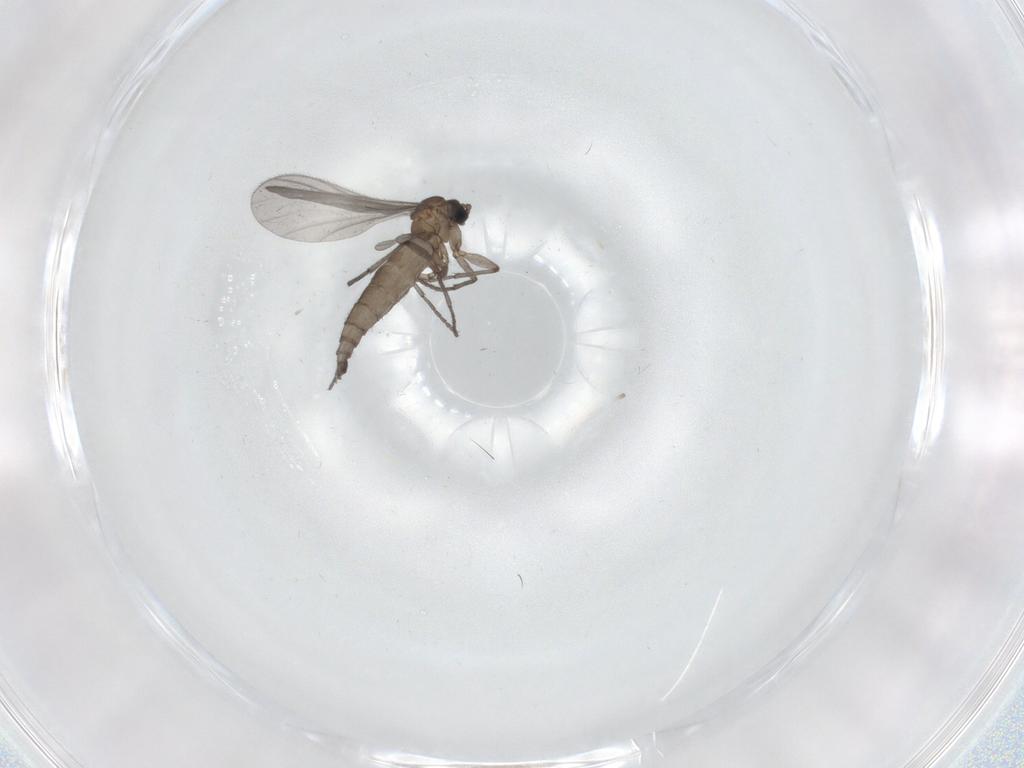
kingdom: Animalia
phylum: Arthropoda
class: Insecta
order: Diptera
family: Sciaridae
